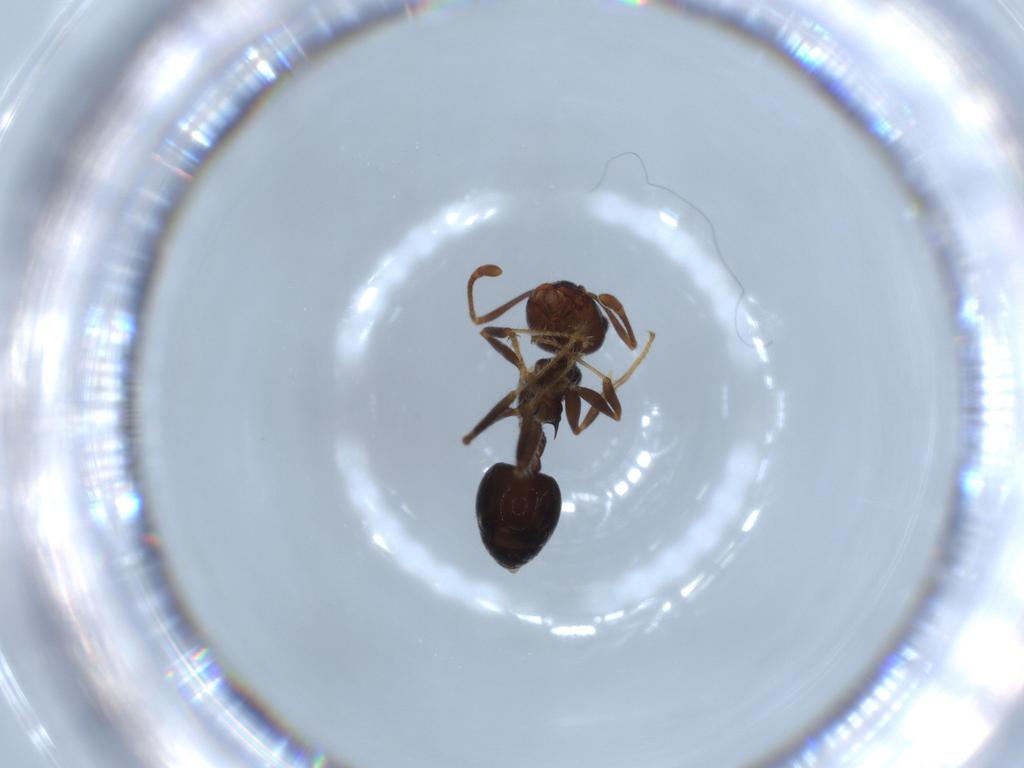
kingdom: Animalia
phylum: Arthropoda
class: Insecta
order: Hymenoptera
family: Formicidae
